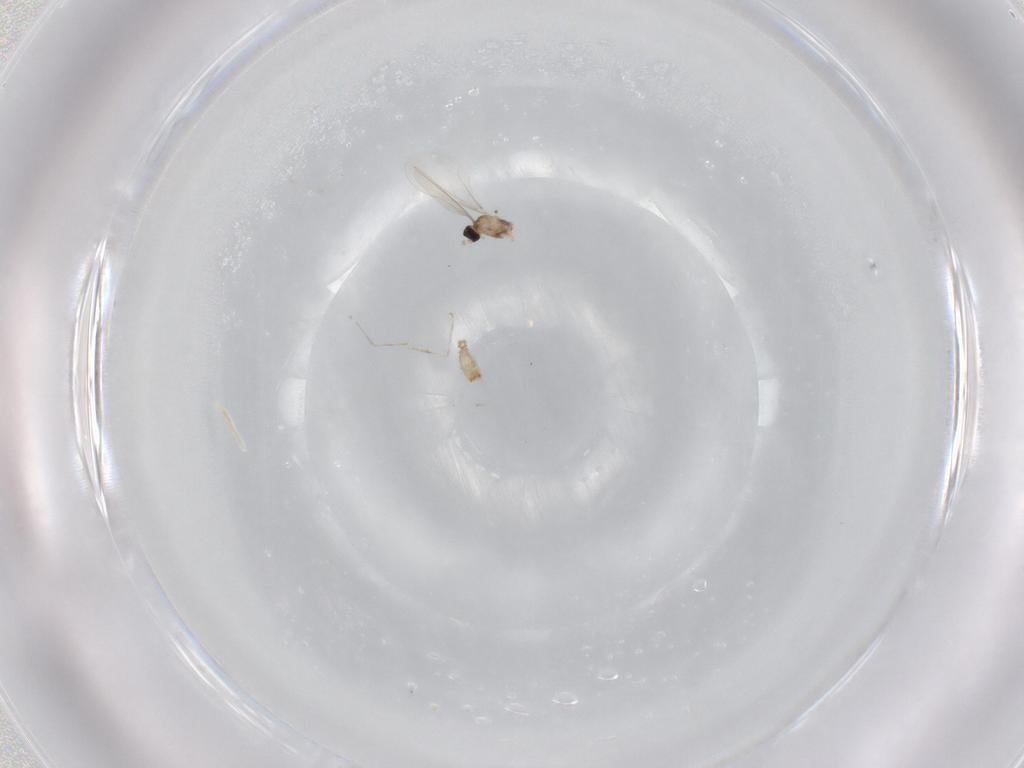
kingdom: Animalia
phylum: Arthropoda
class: Insecta
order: Diptera
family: Cecidomyiidae
